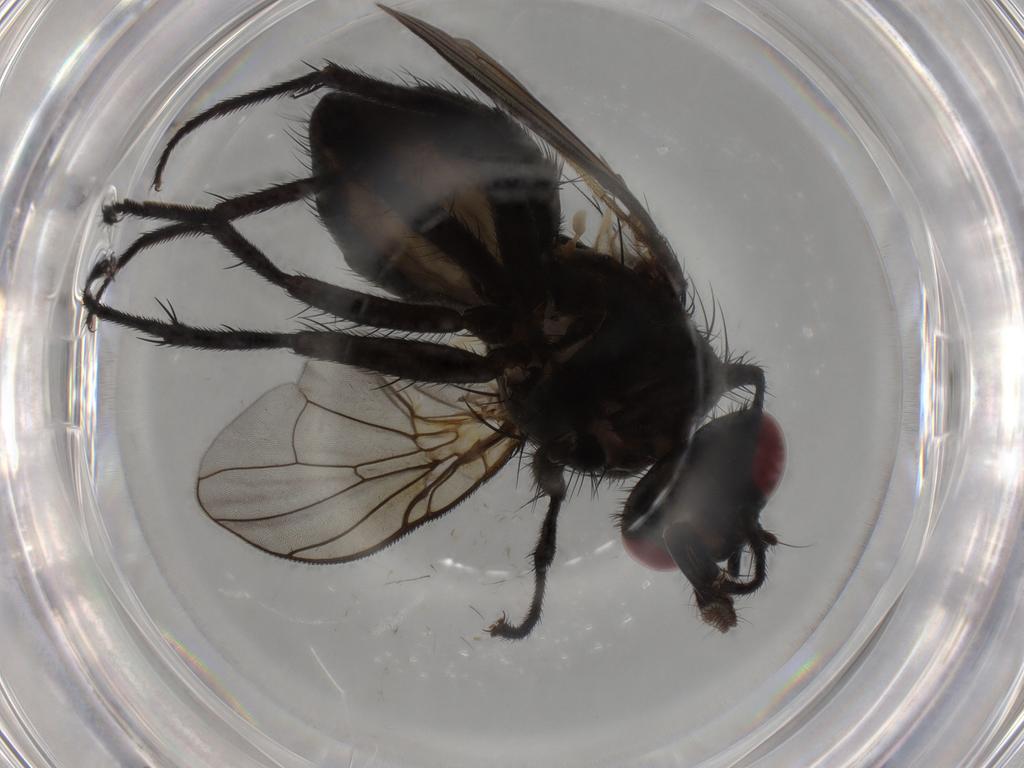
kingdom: Animalia
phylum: Arthropoda
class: Insecta
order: Diptera
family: Muscidae
